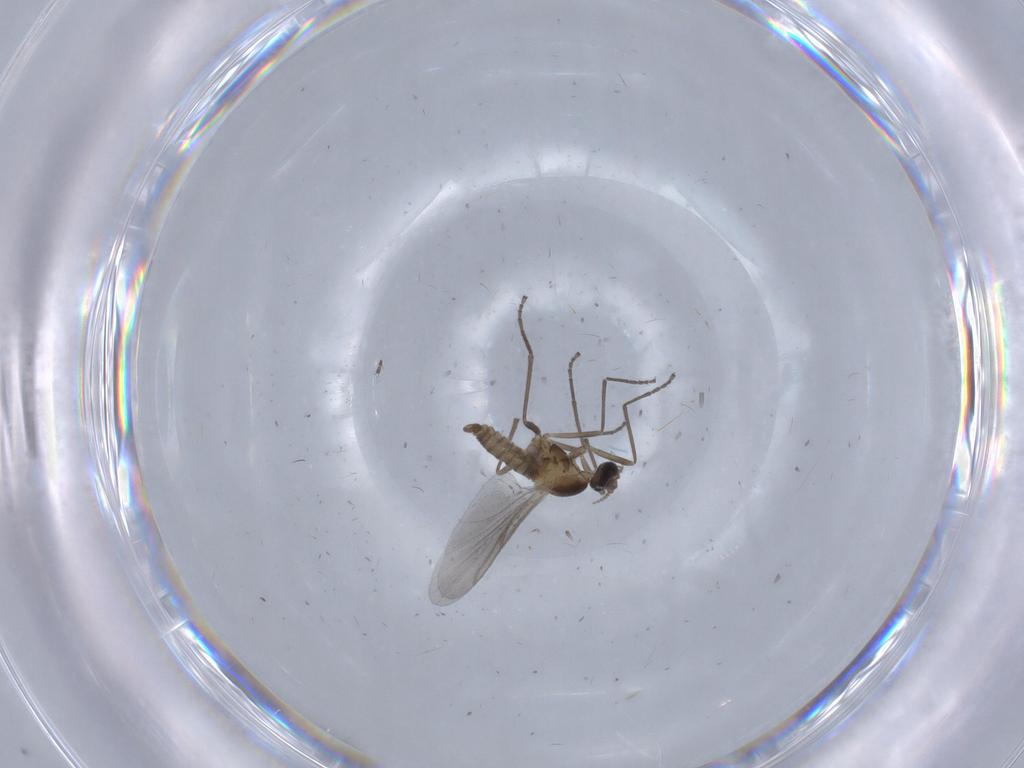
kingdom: Animalia
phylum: Arthropoda
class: Insecta
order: Diptera
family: Cecidomyiidae
